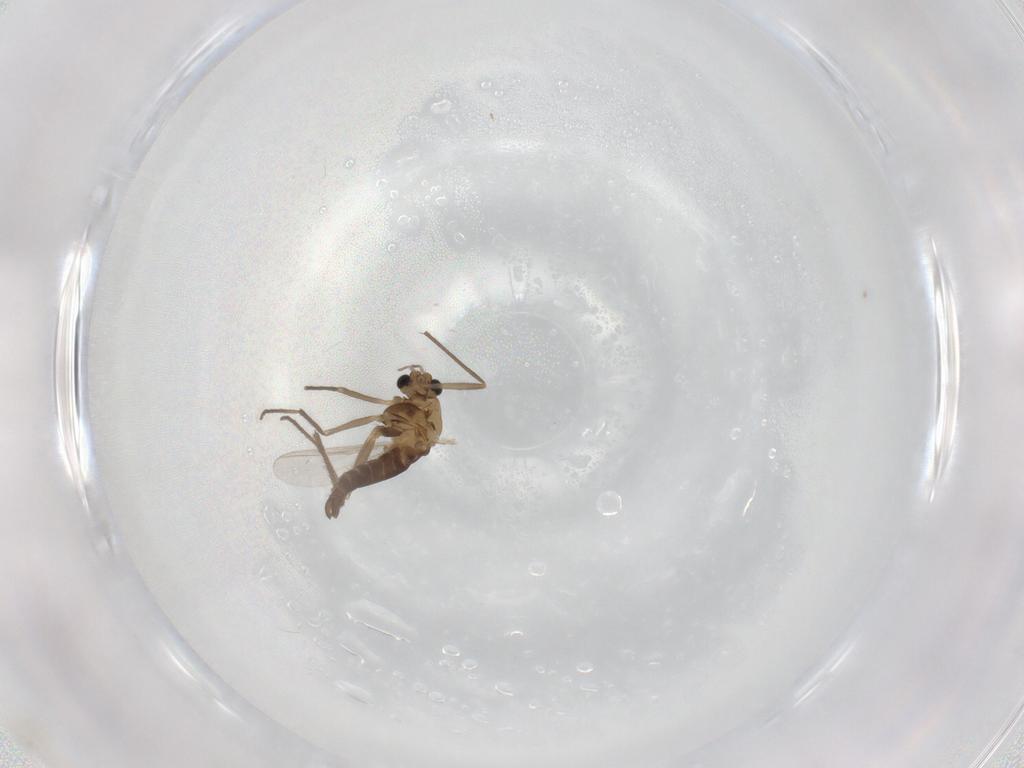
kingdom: Animalia
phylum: Arthropoda
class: Insecta
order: Diptera
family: Chironomidae
